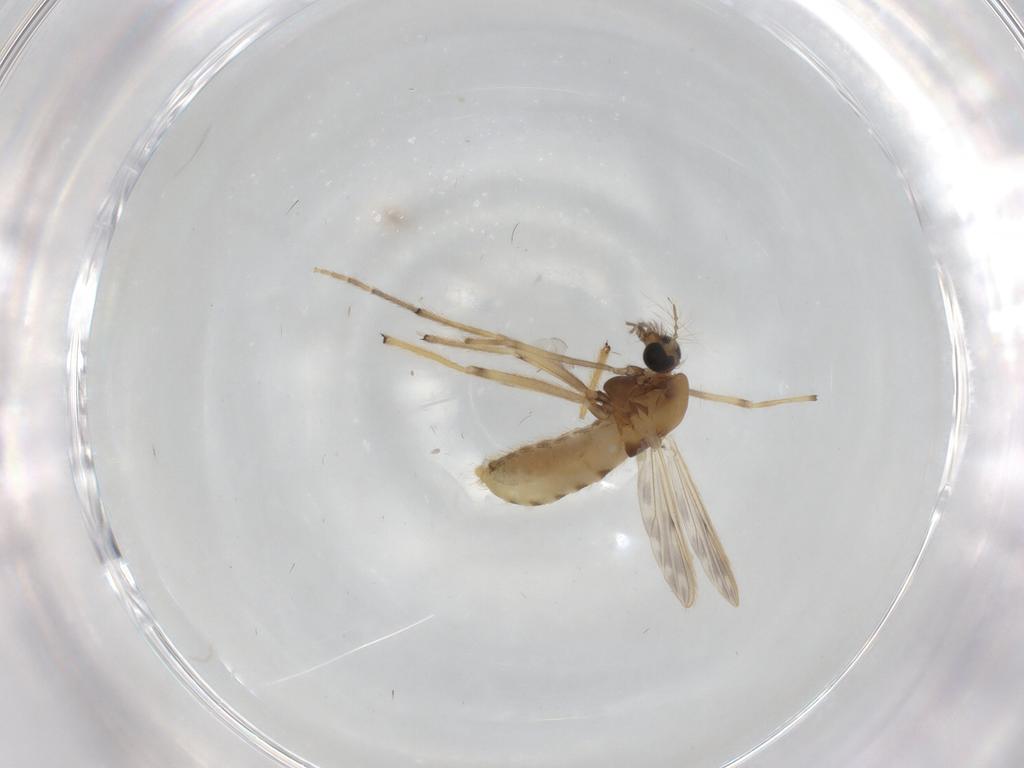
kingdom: Animalia
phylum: Arthropoda
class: Insecta
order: Diptera
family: Chironomidae
